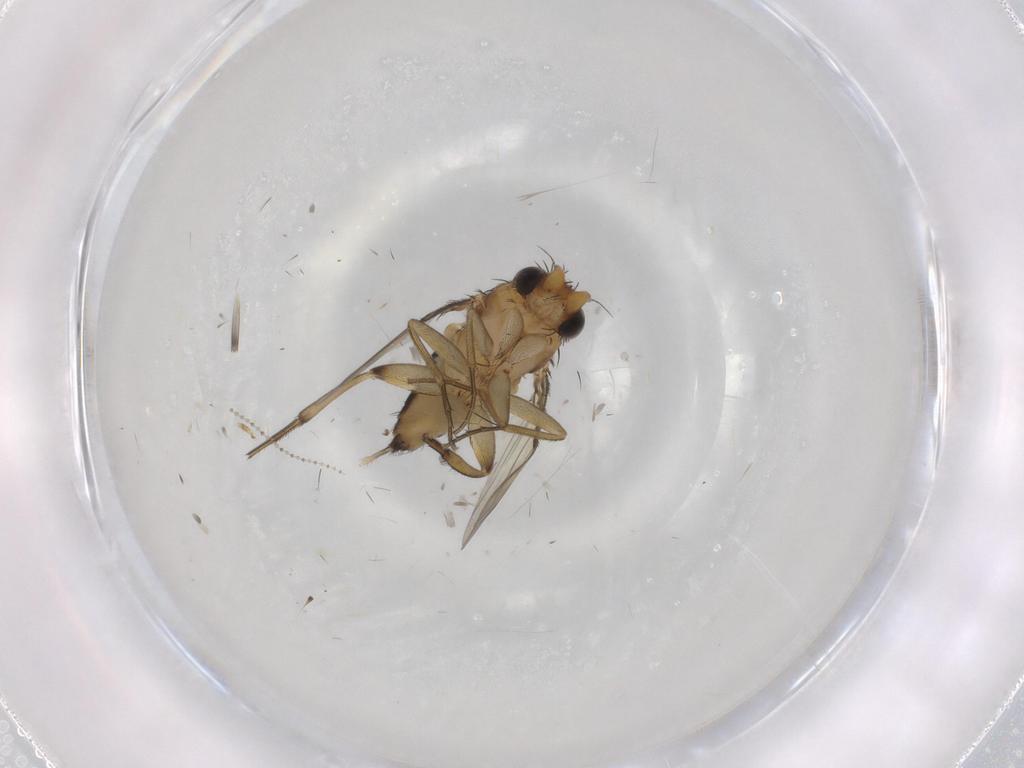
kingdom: Animalia
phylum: Arthropoda
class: Insecta
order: Diptera
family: Cecidomyiidae
